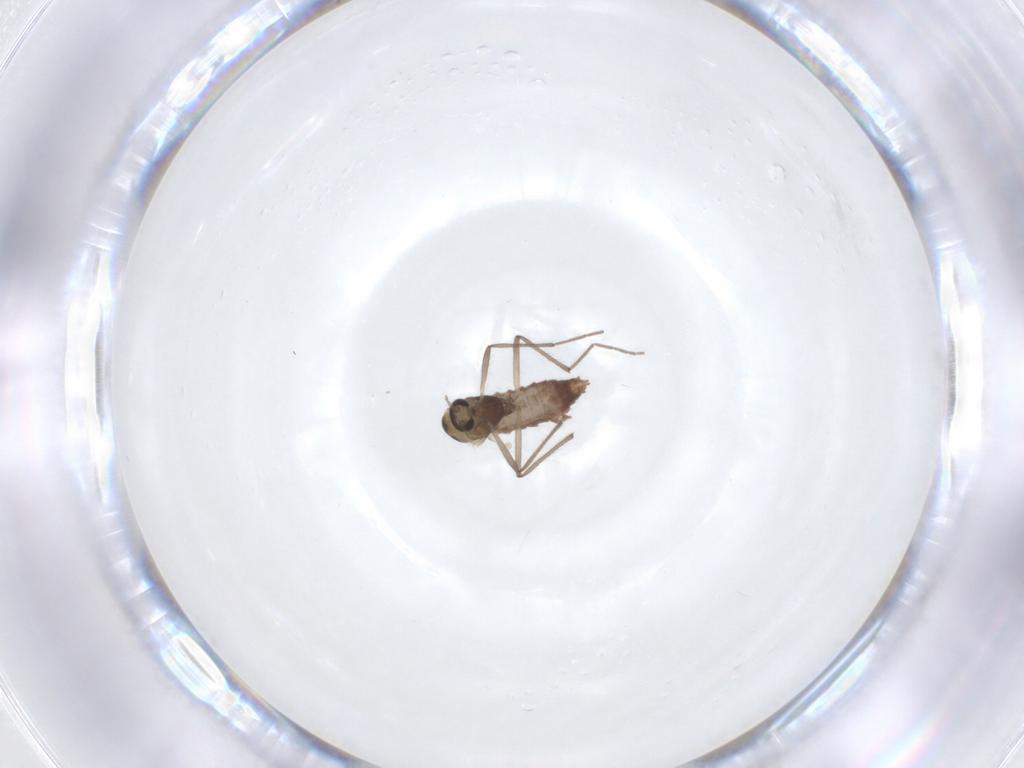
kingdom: Animalia
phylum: Arthropoda
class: Insecta
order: Diptera
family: Chironomidae
